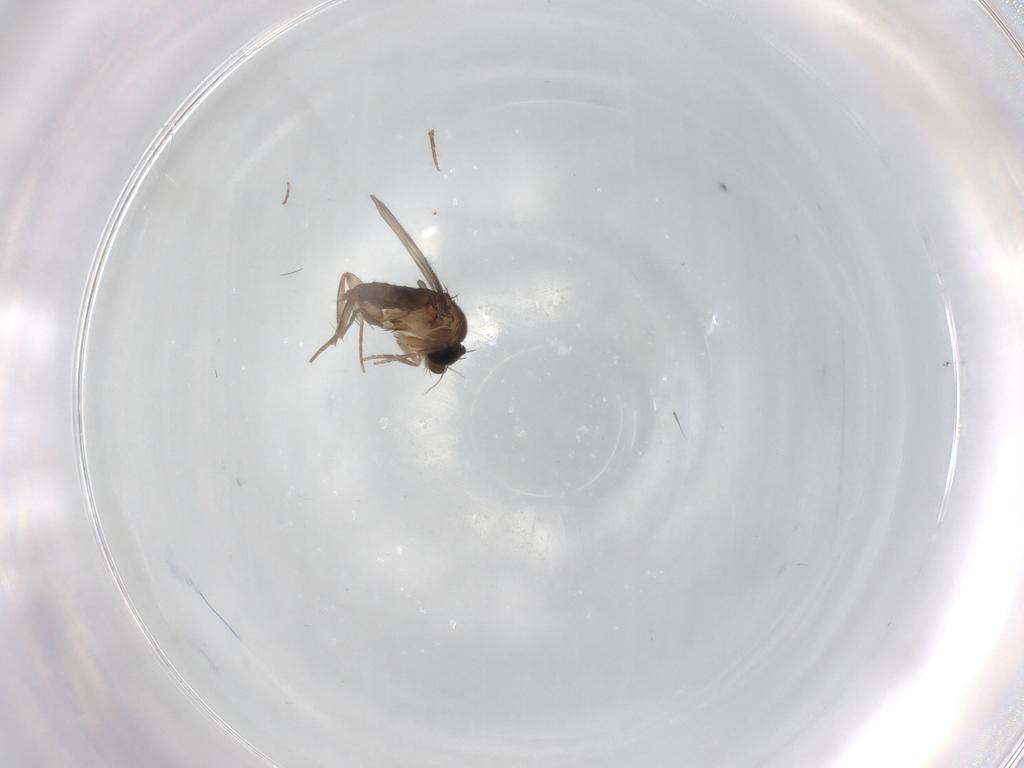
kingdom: Animalia
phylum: Arthropoda
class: Insecta
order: Diptera
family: Phoridae
